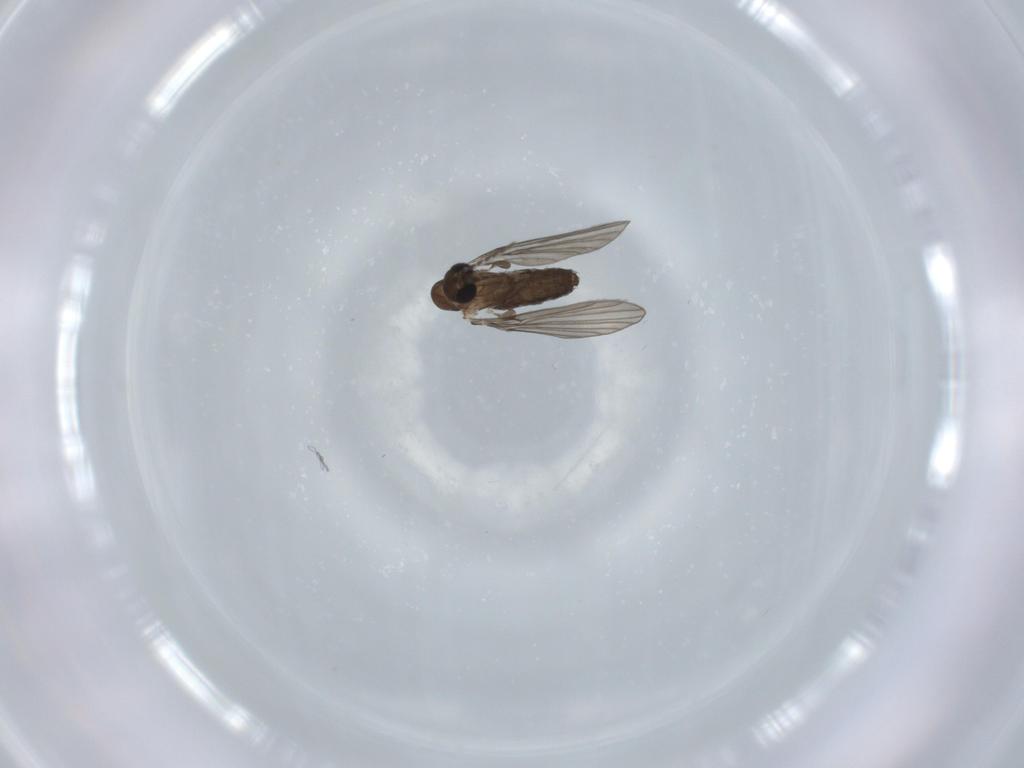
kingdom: Animalia
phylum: Arthropoda
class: Insecta
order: Diptera
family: Psychodidae
